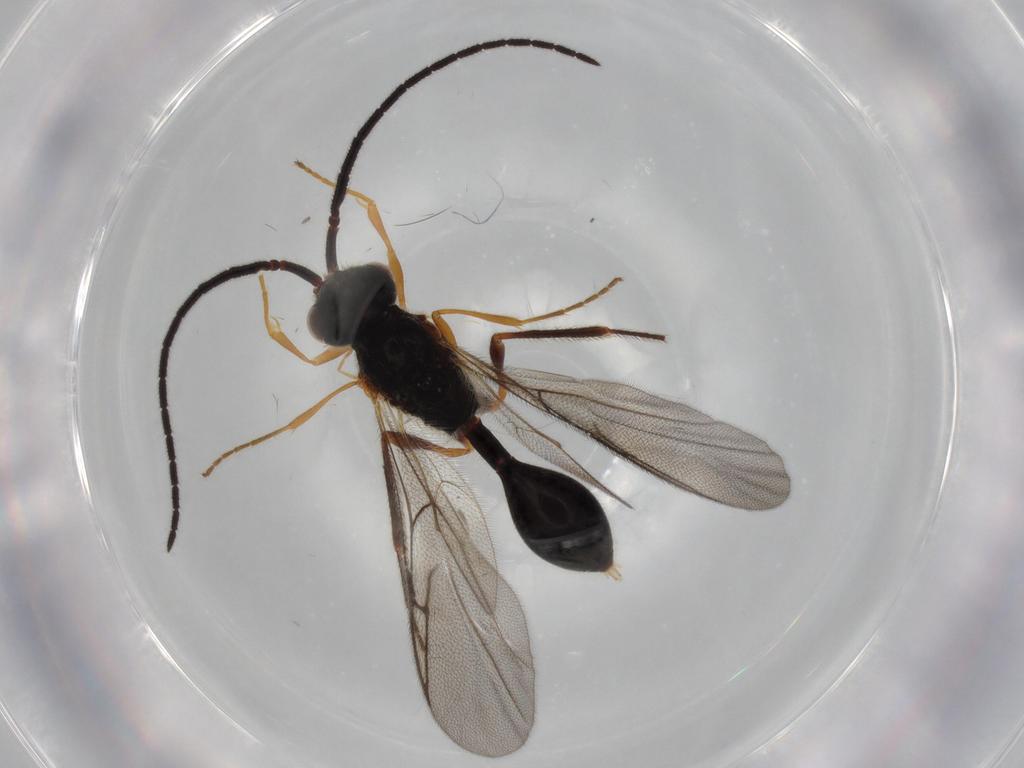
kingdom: Animalia
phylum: Arthropoda
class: Insecta
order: Hymenoptera
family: Diapriidae
